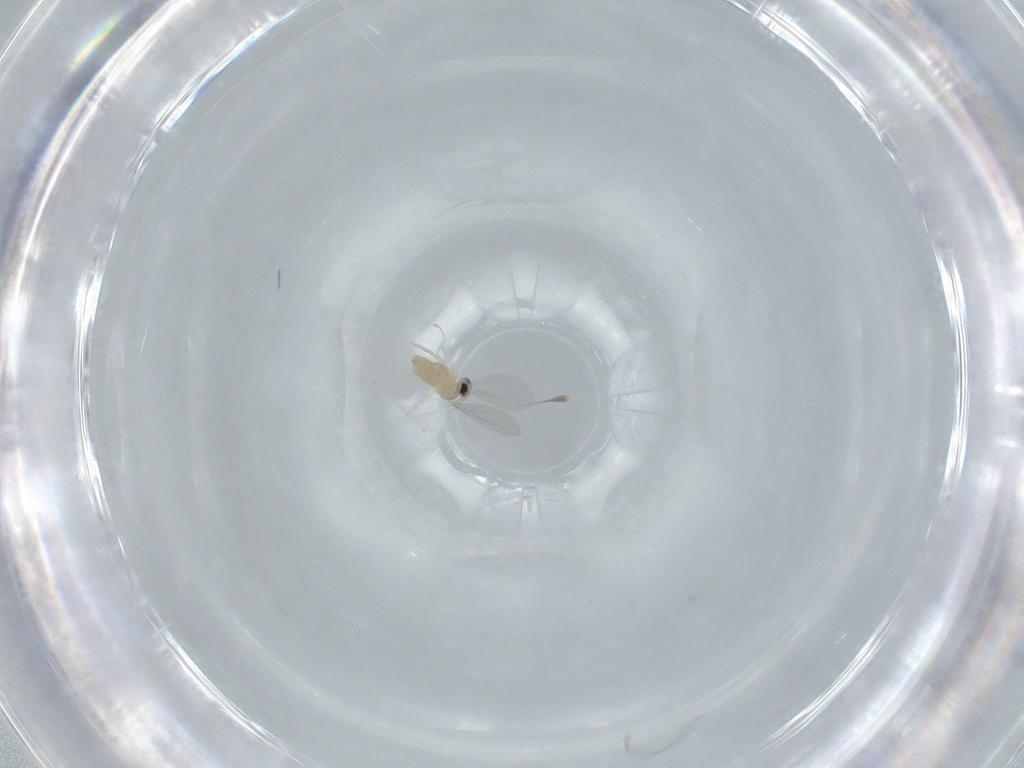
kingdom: Animalia
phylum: Arthropoda
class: Insecta
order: Diptera
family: Cecidomyiidae
